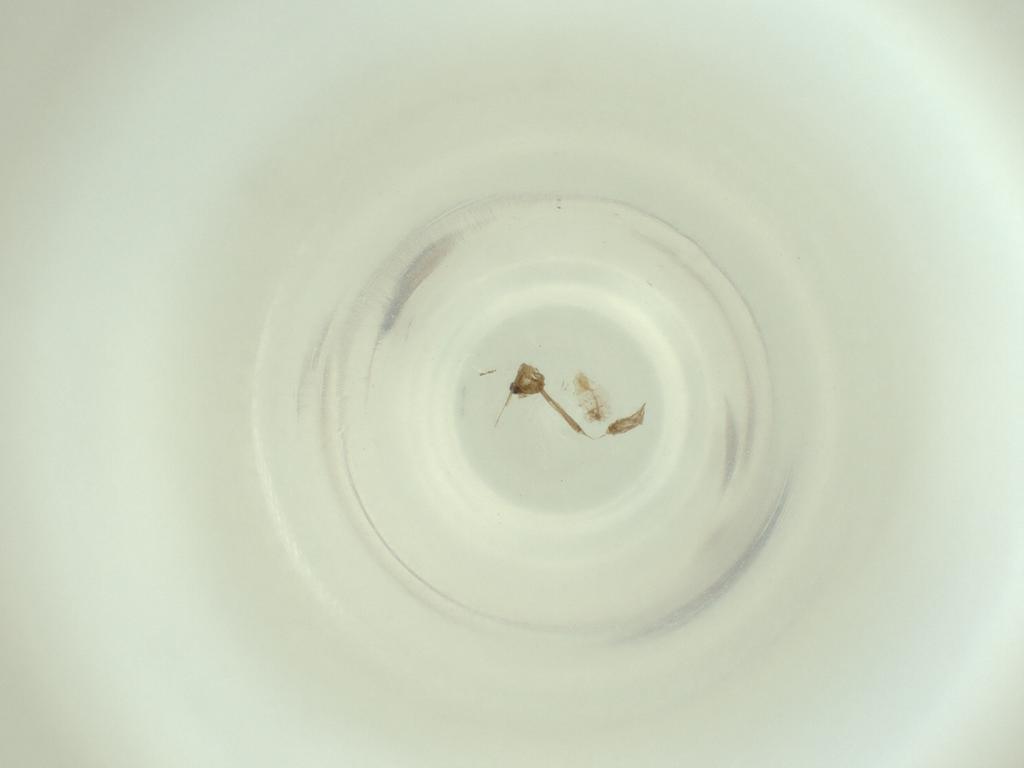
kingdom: Animalia
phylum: Arthropoda
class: Insecta
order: Diptera
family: Cecidomyiidae
